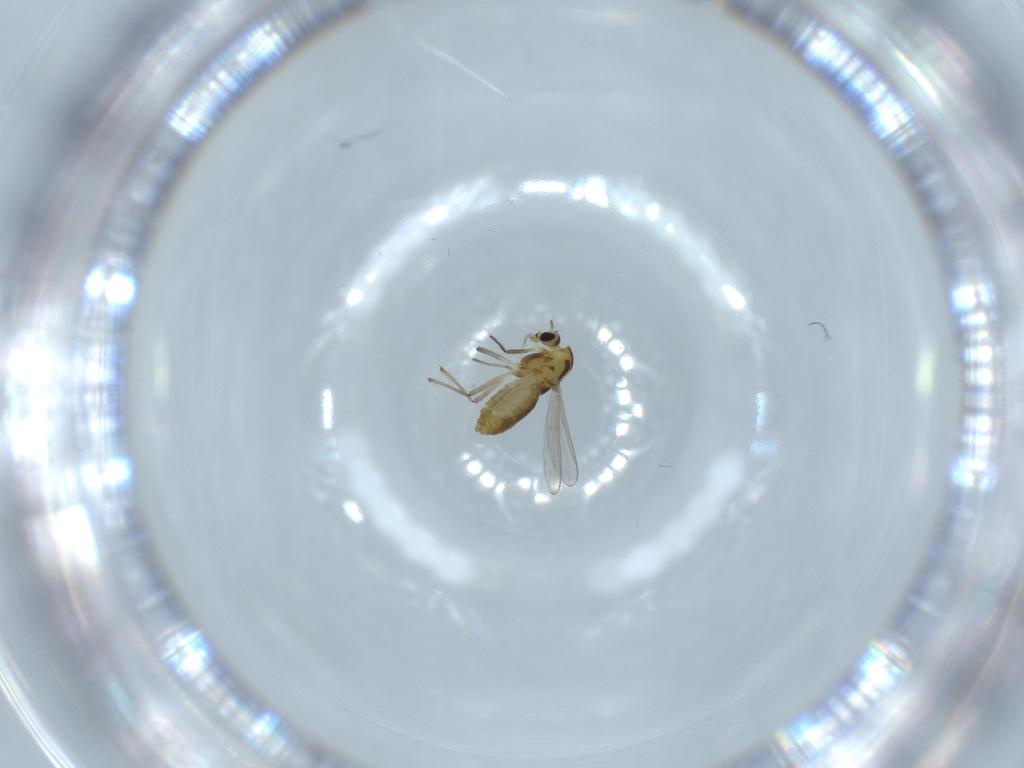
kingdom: Animalia
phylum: Arthropoda
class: Insecta
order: Diptera
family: Chironomidae
